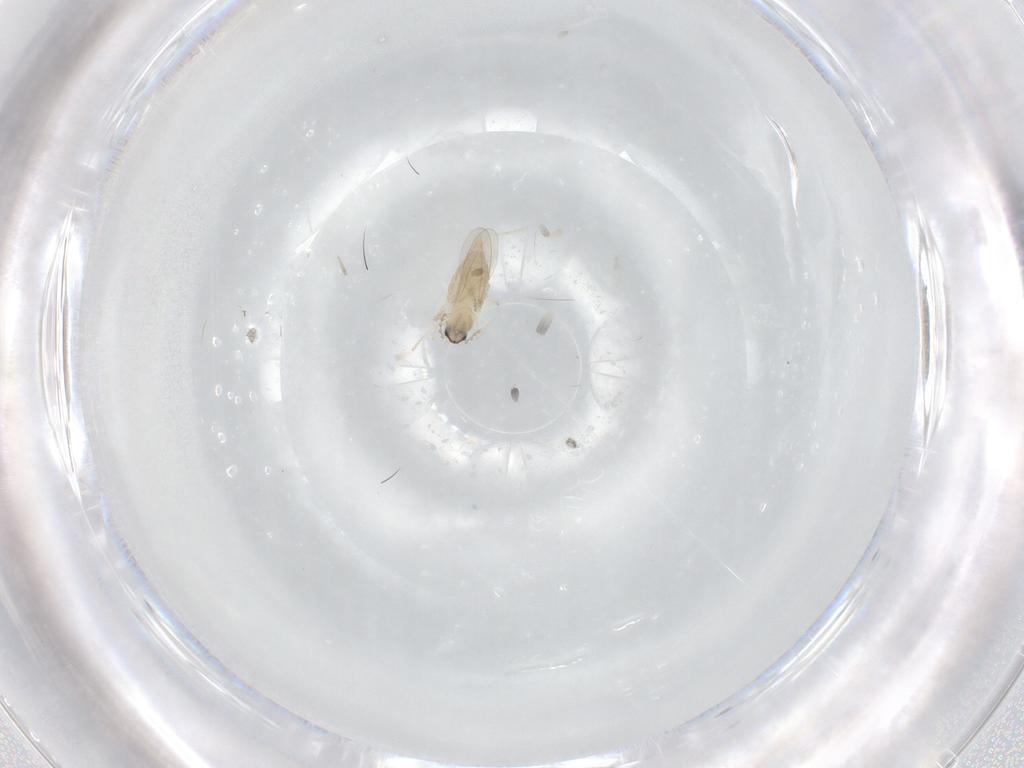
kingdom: Animalia
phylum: Arthropoda
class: Insecta
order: Diptera
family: Cecidomyiidae
